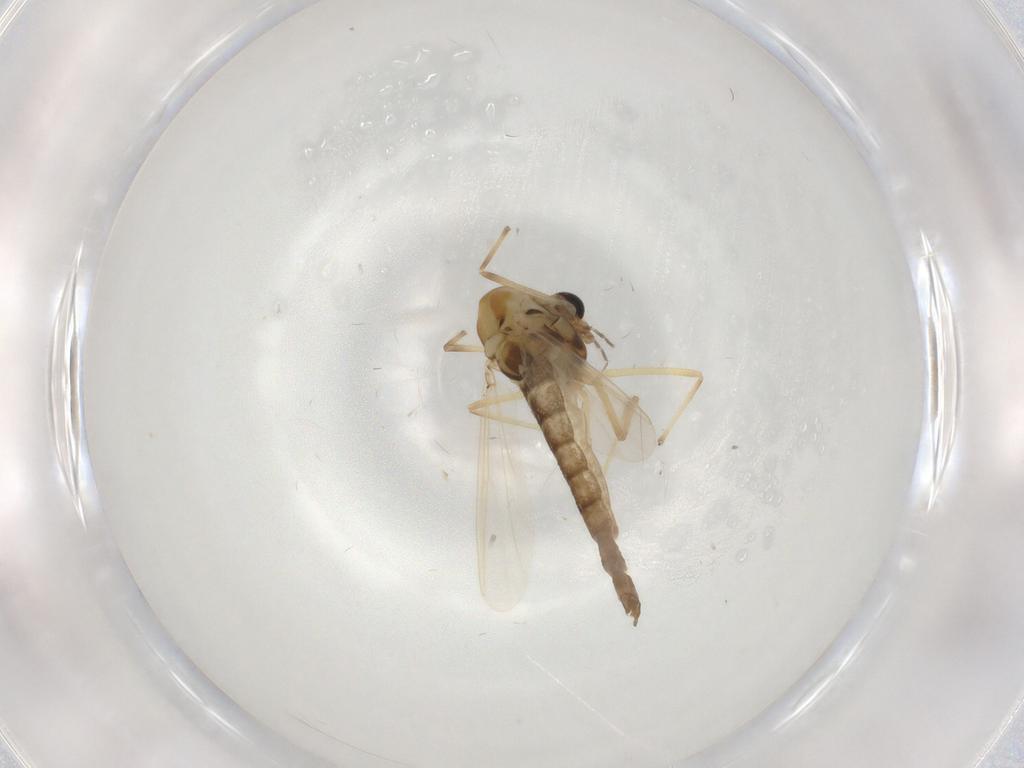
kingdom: Animalia
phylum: Arthropoda
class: Insecta
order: Diptera
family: Chironomidae
